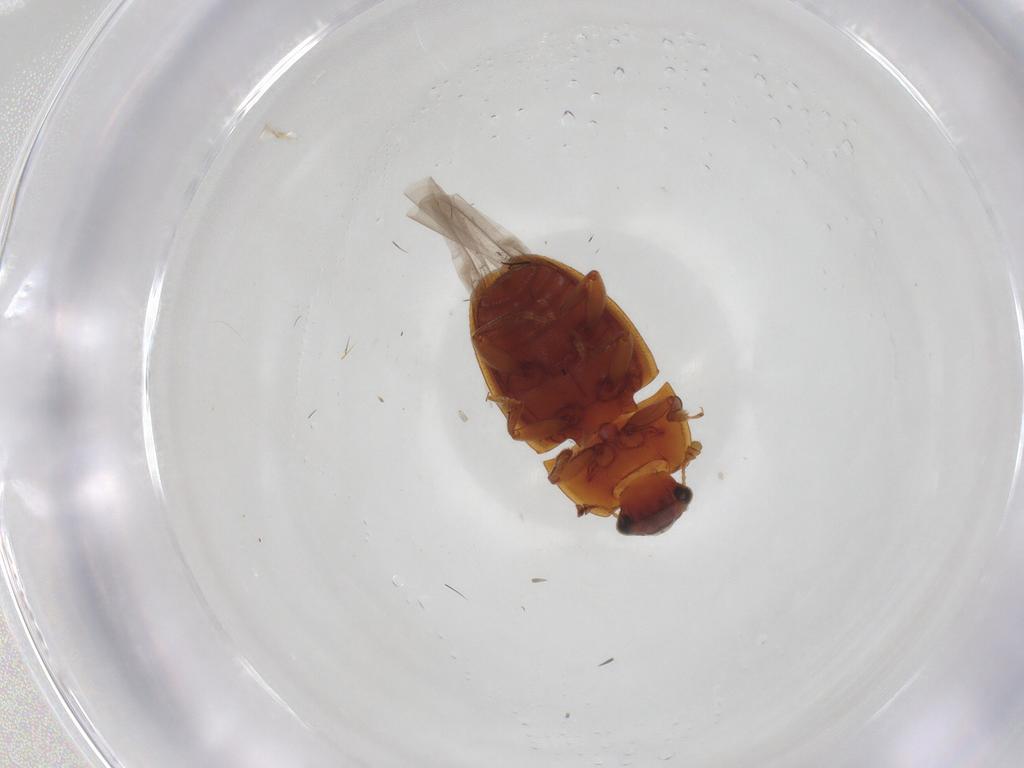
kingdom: Animalia
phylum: Arthropoda
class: Insecta
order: Coleoptera
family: Nitidulidae
